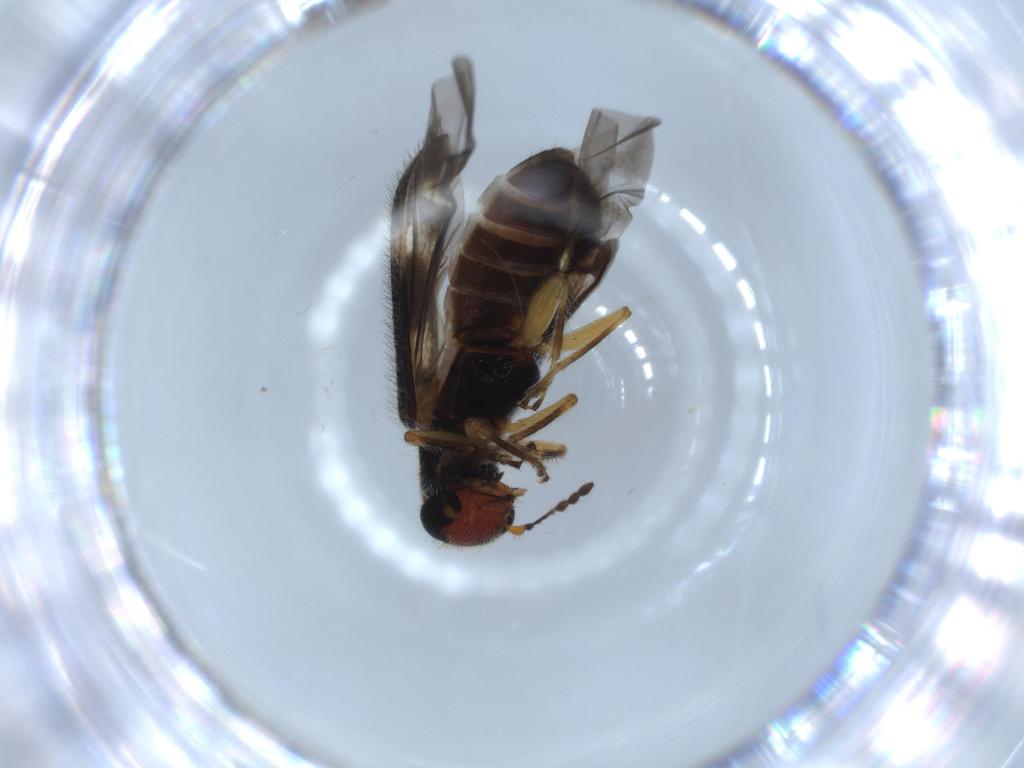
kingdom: Animalia
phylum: Arthropoda
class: Insecta
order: Coleoptera
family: Cleridae
